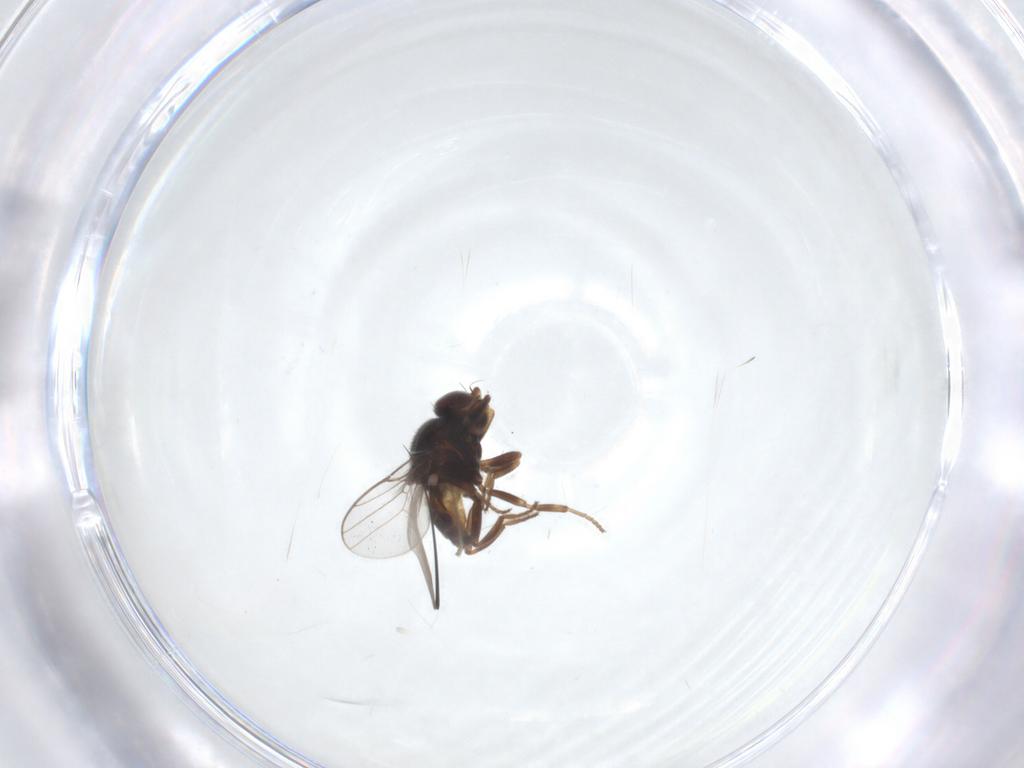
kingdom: Animalia
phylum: Arthropoda
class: Insecta
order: Diptera
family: Chloropidae
